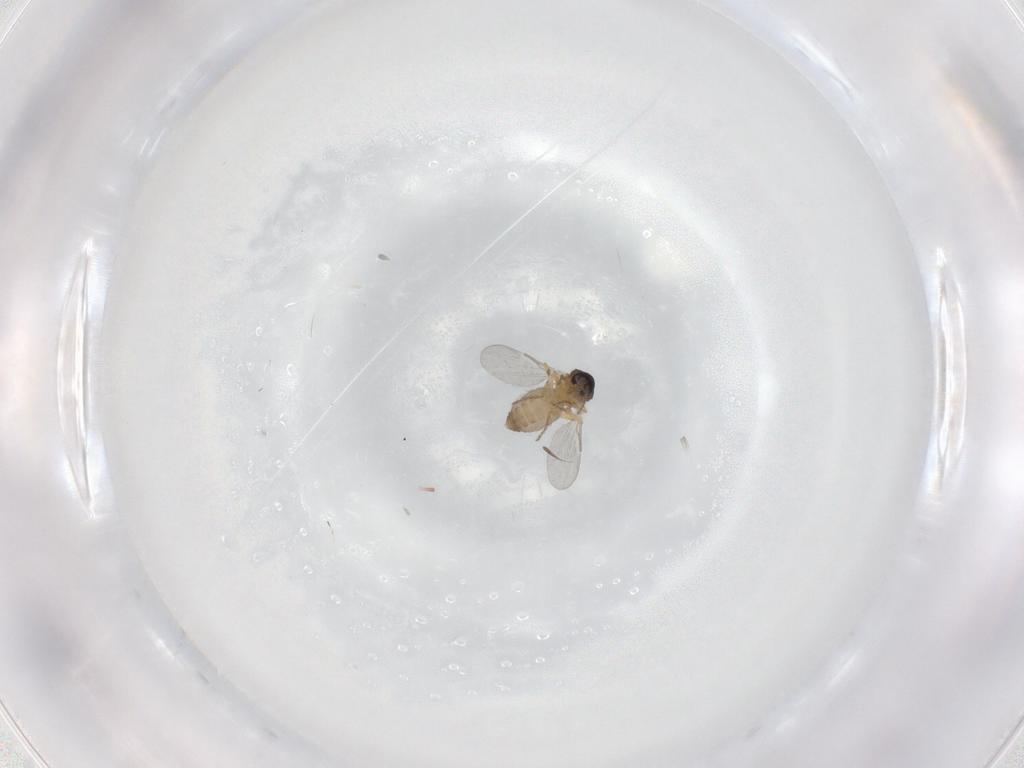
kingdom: Animalia
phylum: Arthropoda
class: Insecta
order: Diptera
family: Ceratopogonidae
